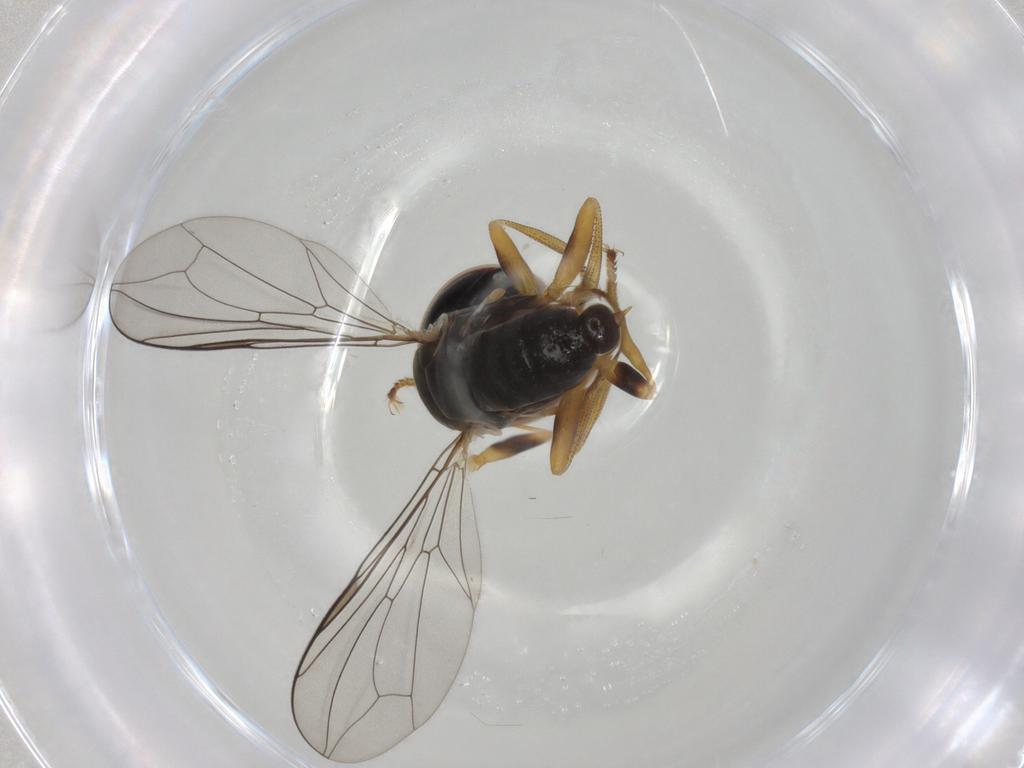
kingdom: Animalia
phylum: Arthropoda
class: Insecta
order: Diptera
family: Pipunculidae
